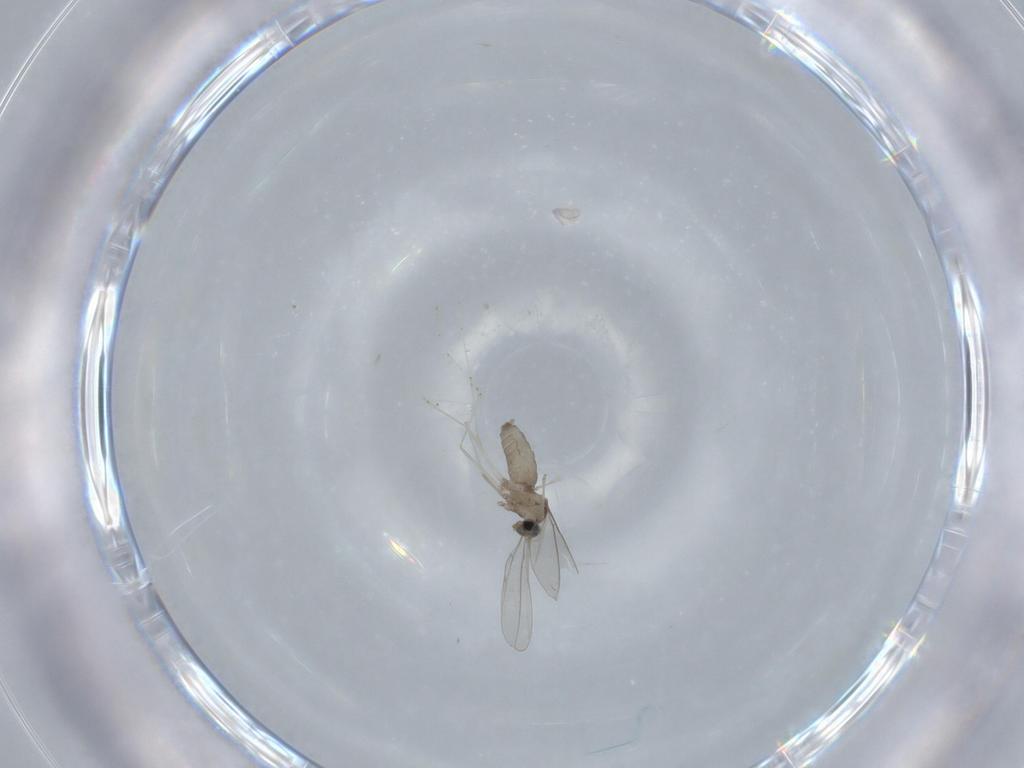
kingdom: Animalia
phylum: Arthropoda
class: Insecta
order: Diptera
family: Cecidomyiidae
